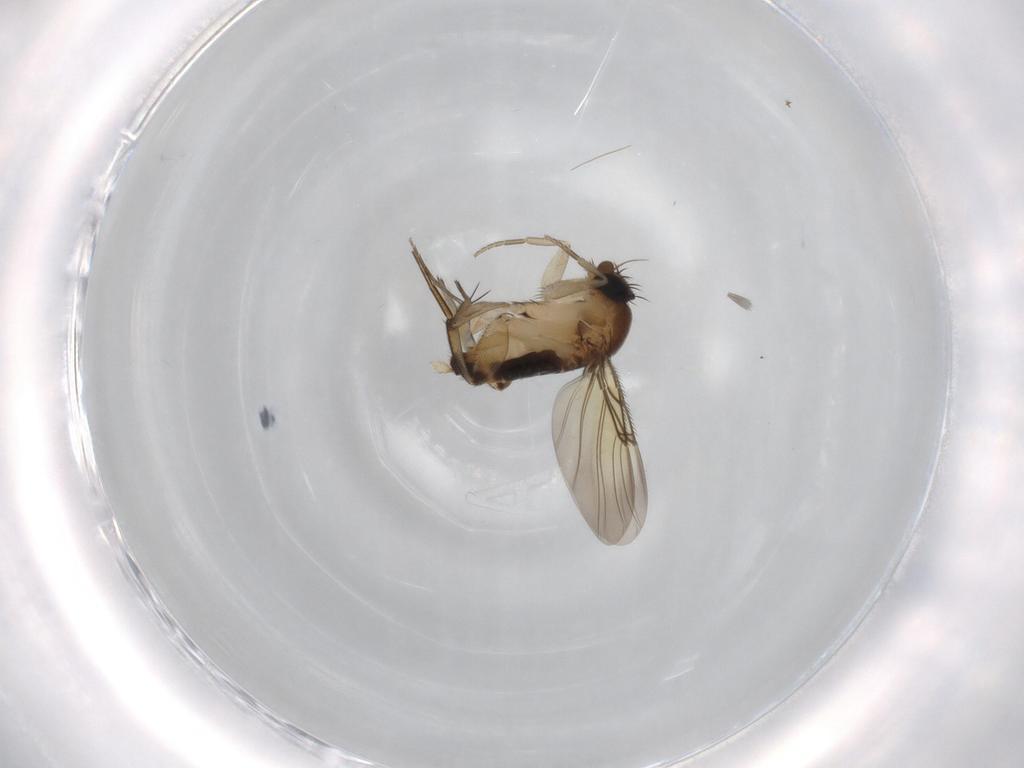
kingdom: Animalia
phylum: Arthropoda
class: Insecta
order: Diptera
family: Phoridae
